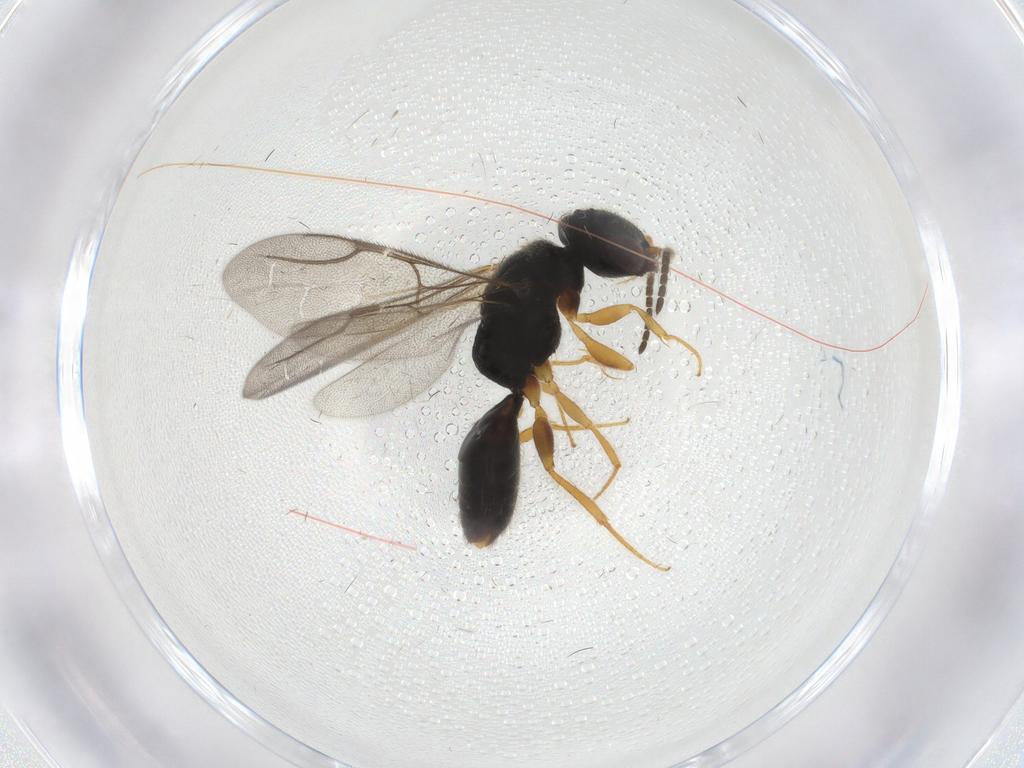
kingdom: Animalia
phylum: Arthropoda
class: Insecta
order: Hymenoptera
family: Bethylidae
